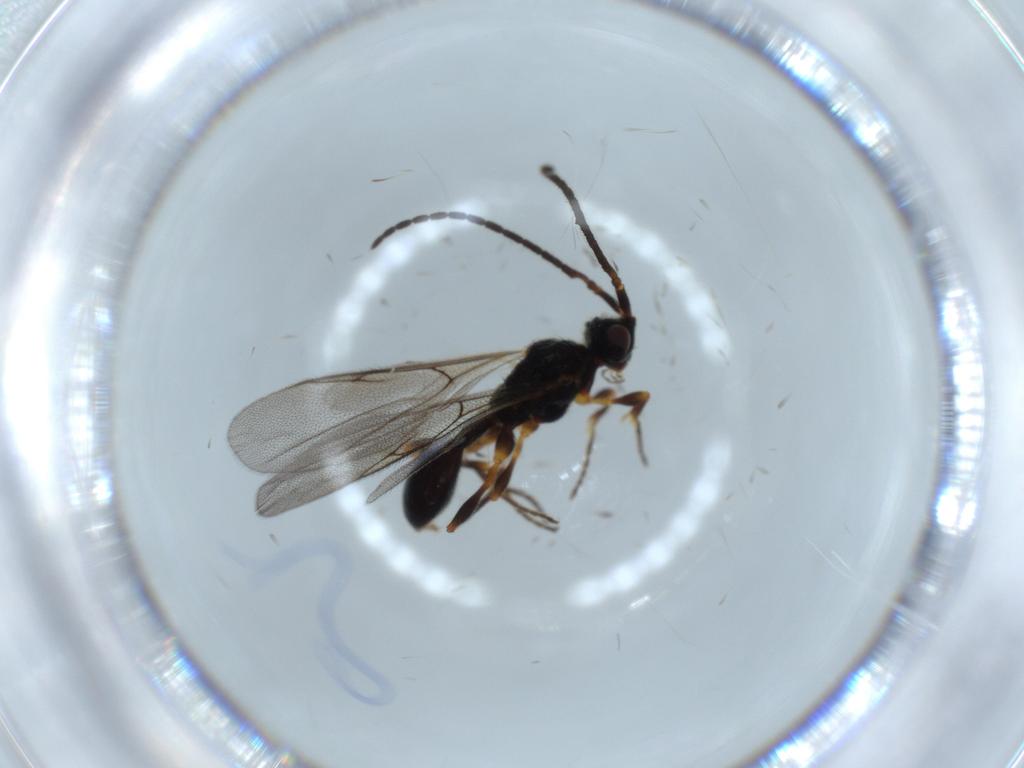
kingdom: Animalia
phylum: Arthropoda
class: Insecta
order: Hymenoptera
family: Diapriidae
